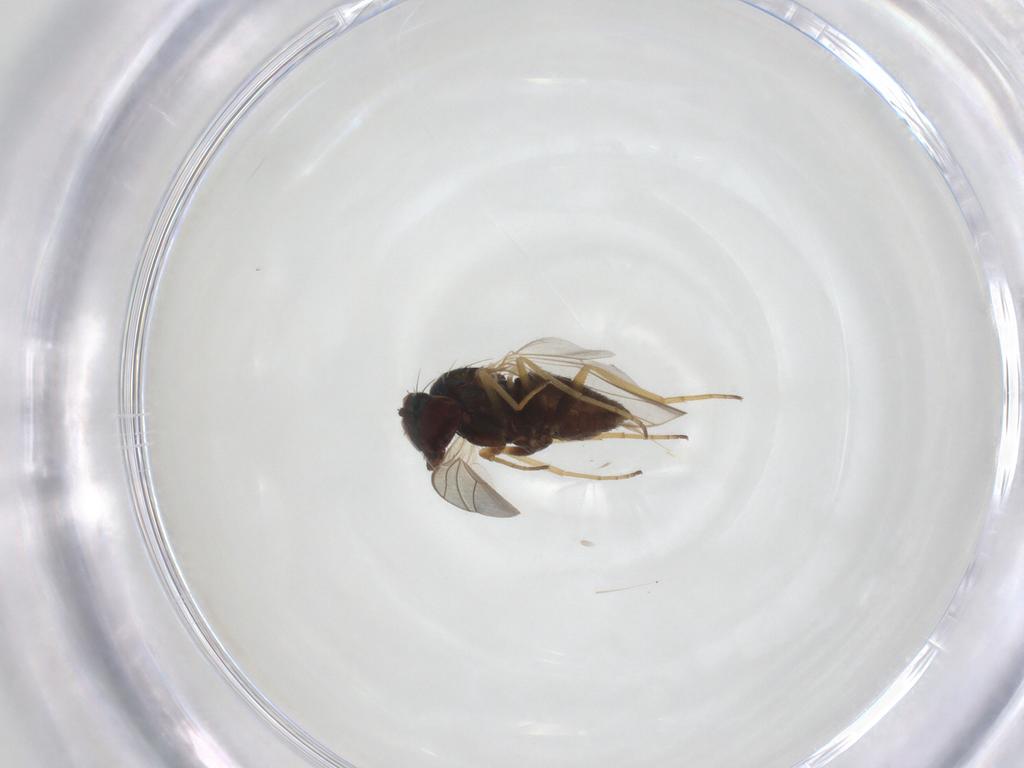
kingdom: Animalia
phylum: Arthropoda
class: Insecta
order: Diptera
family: Dolichopodidae
